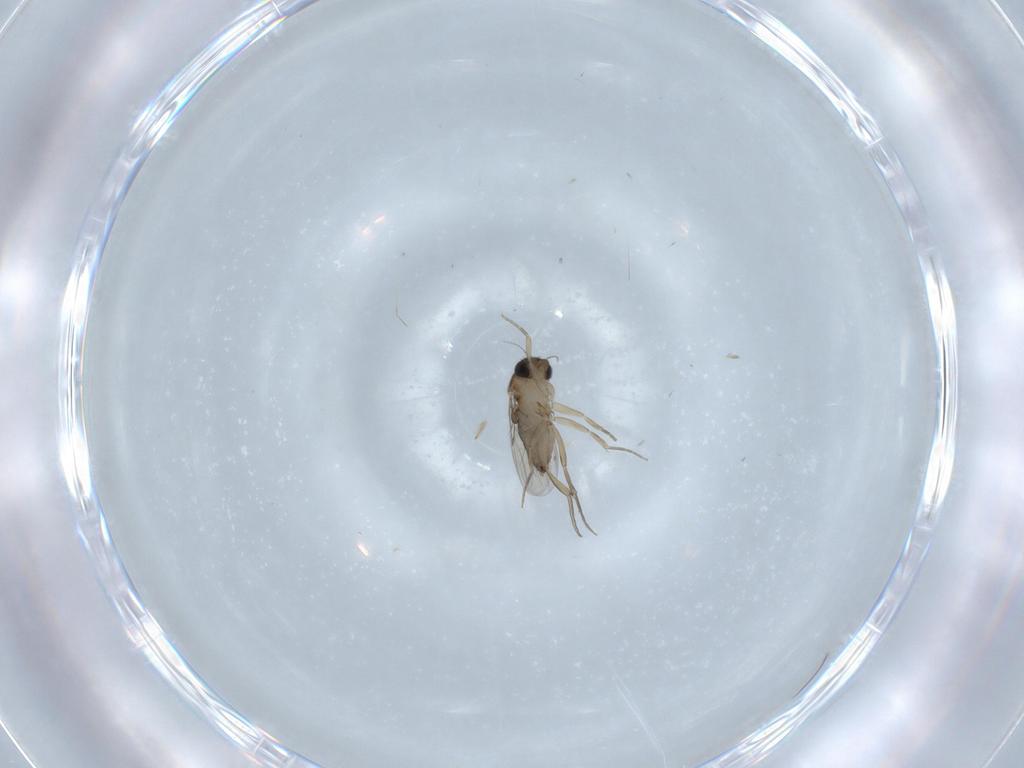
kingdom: Animalia
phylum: Arthropoda
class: Insecta
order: Diptera
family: Phoridae
